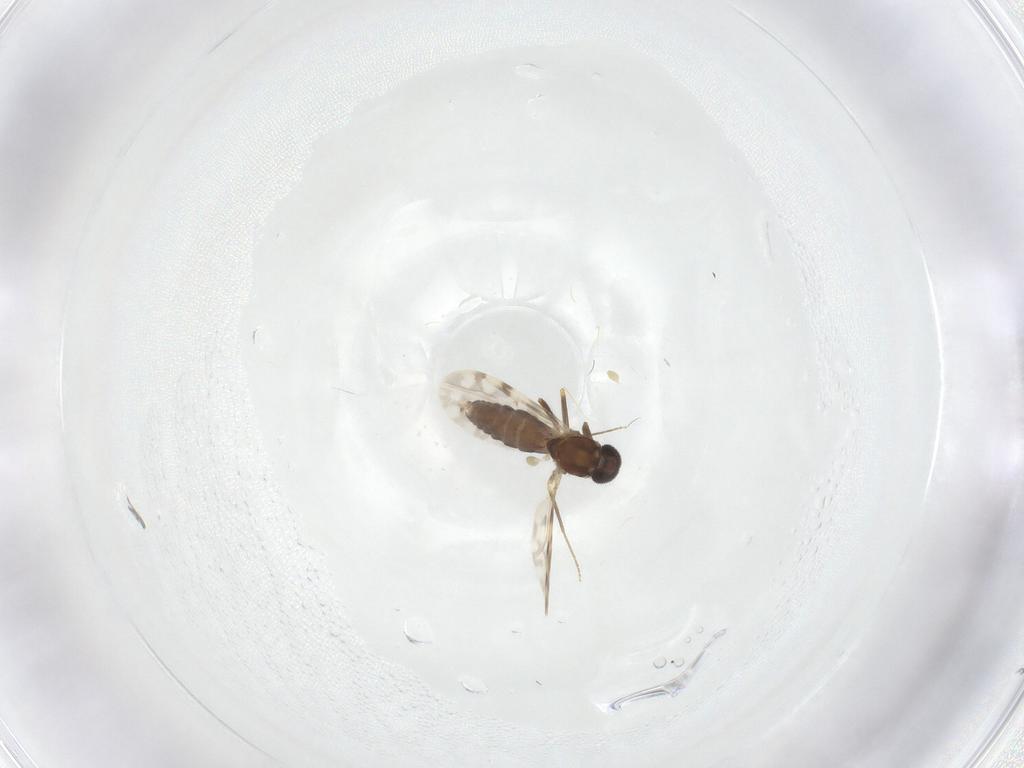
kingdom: Animalia
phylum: Arthropoda
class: Insecta
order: Diptera
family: Ceratopogonidae
